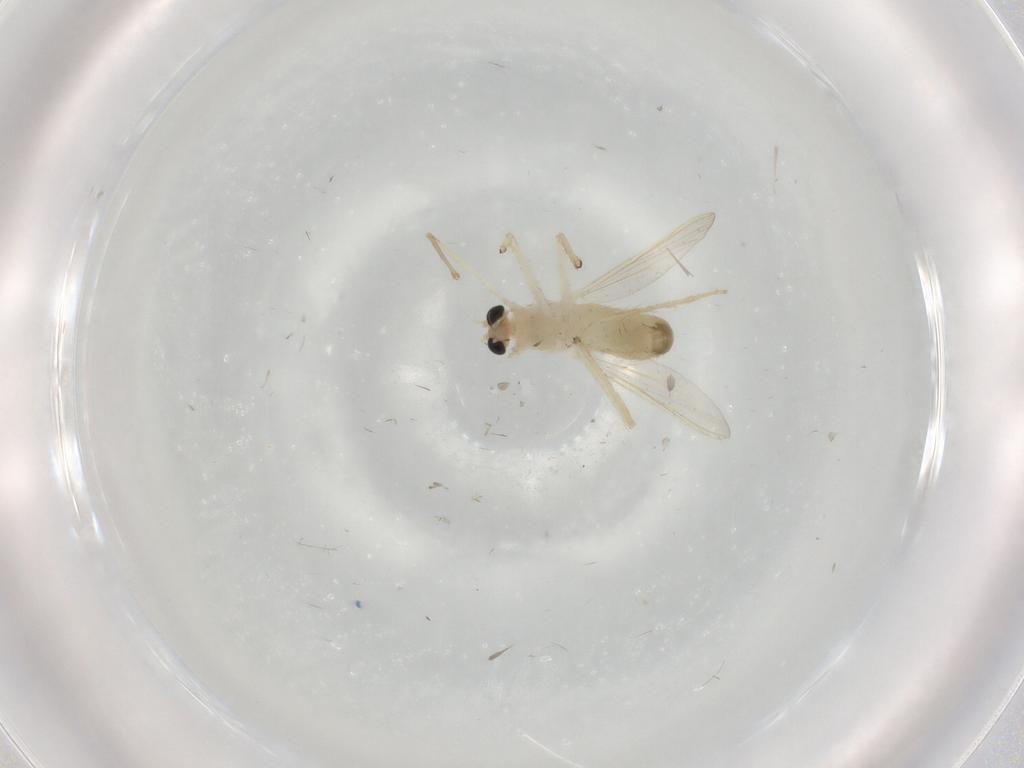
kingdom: Animalia
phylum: Arthropoda
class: Insecta
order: Diptera
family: Chironomidae
